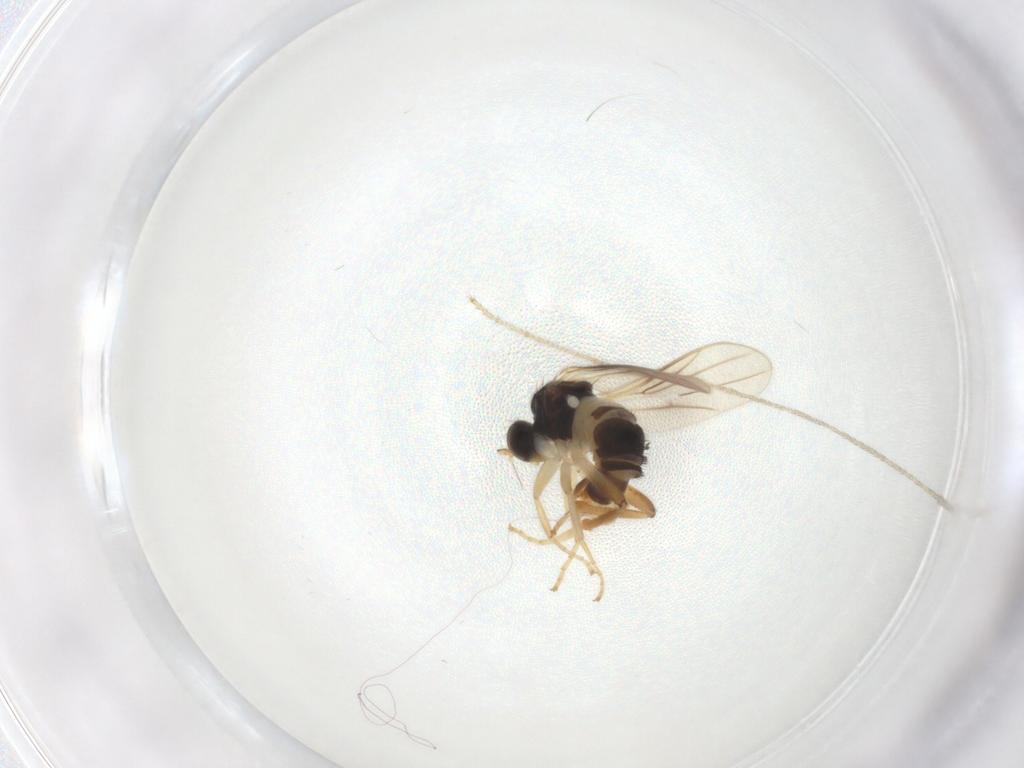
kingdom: Animalia
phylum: Arthropoda
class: Insecta
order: Diptera
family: Hybotidae
